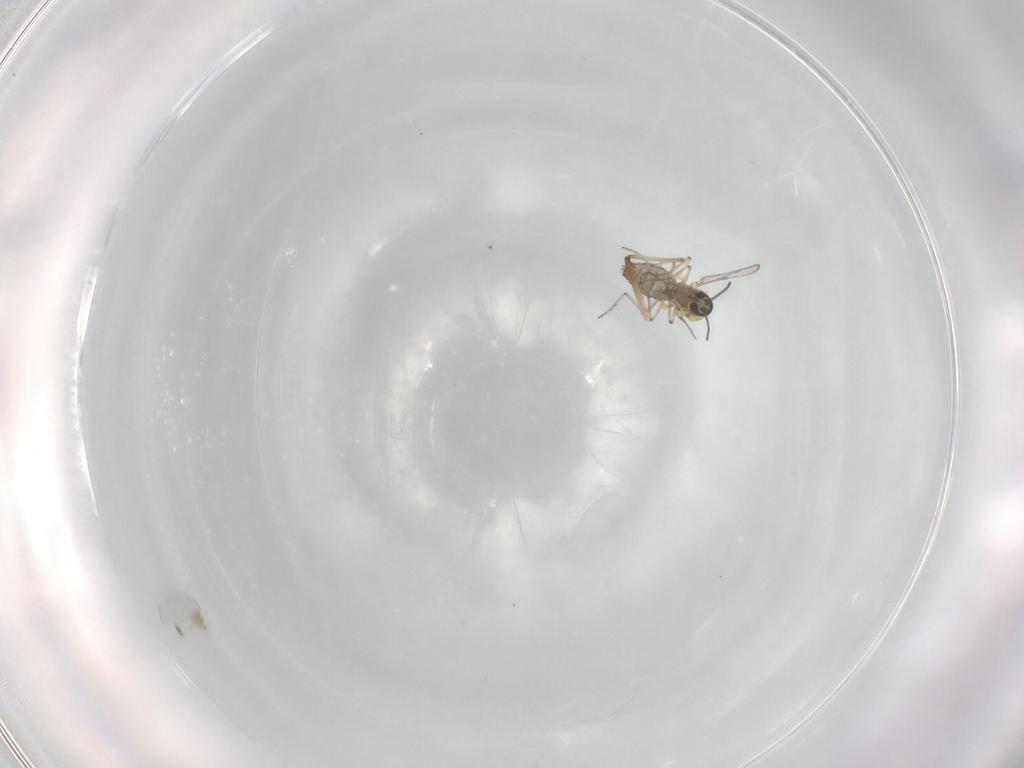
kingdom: Animalia
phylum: Arthropoda
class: Insecta
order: Diptera
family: Chironomidae
